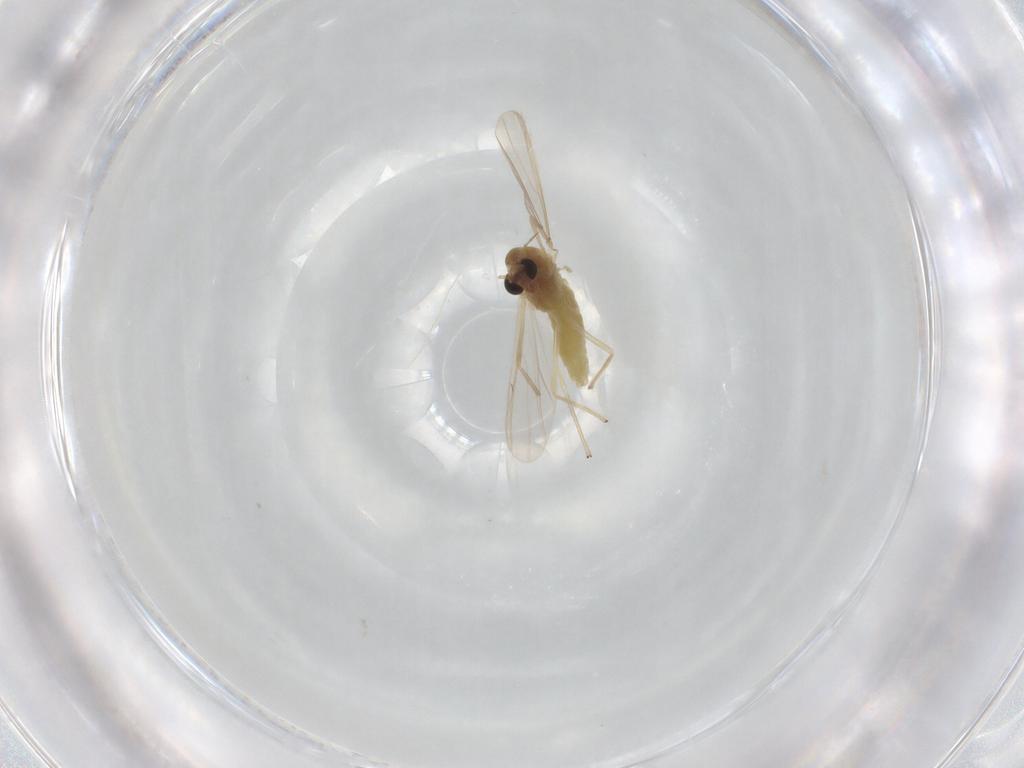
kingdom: Animalia
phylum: Arthropoda
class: Insecta
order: Diptera
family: Chironomidae
